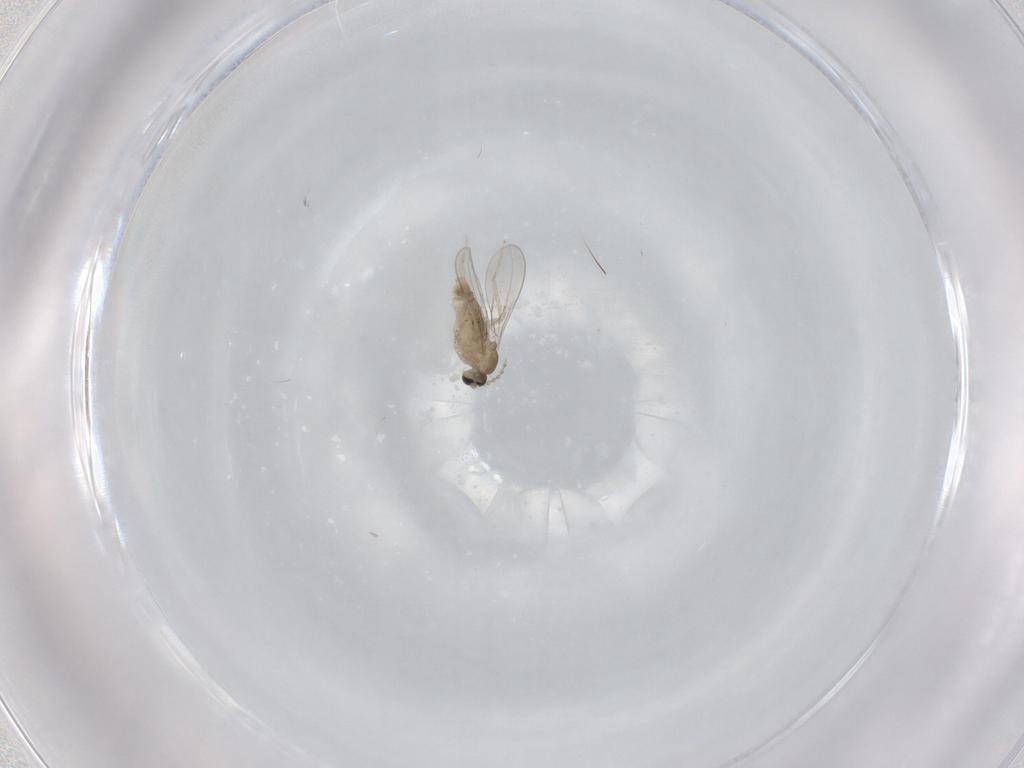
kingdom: Animalia
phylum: Arthropoda
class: Insecta
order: Diptera
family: Cecidomyiidae
